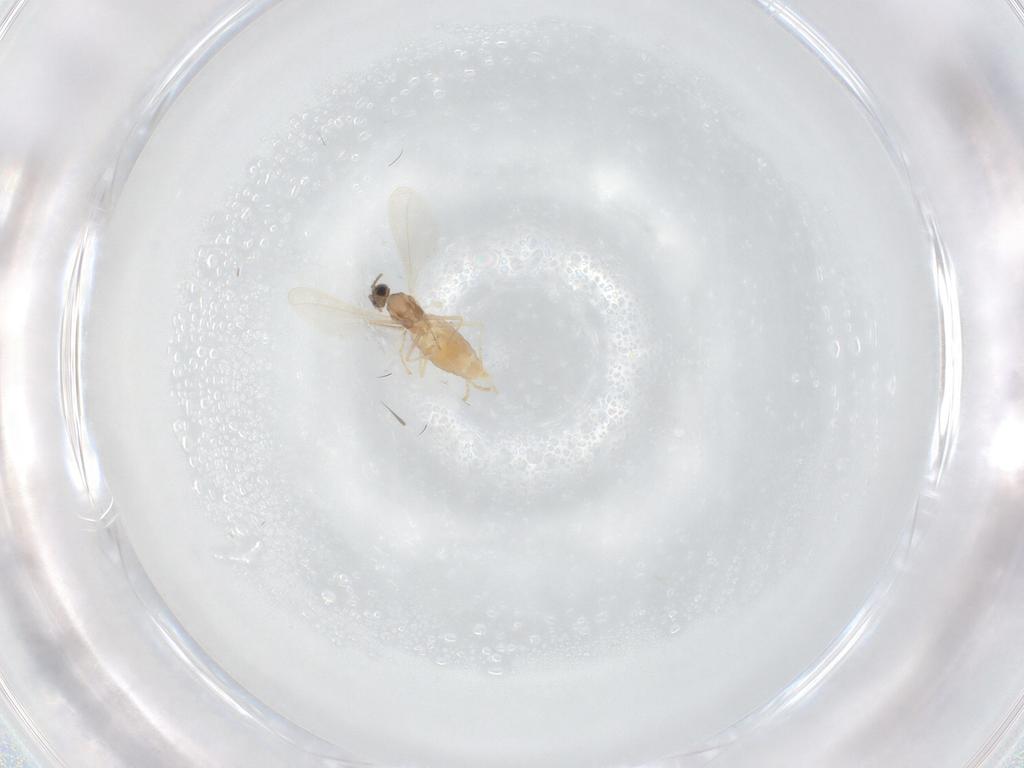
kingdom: Animalia
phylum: Arthropoda
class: Insecta
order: Diptera
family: Cecidomyiidae
